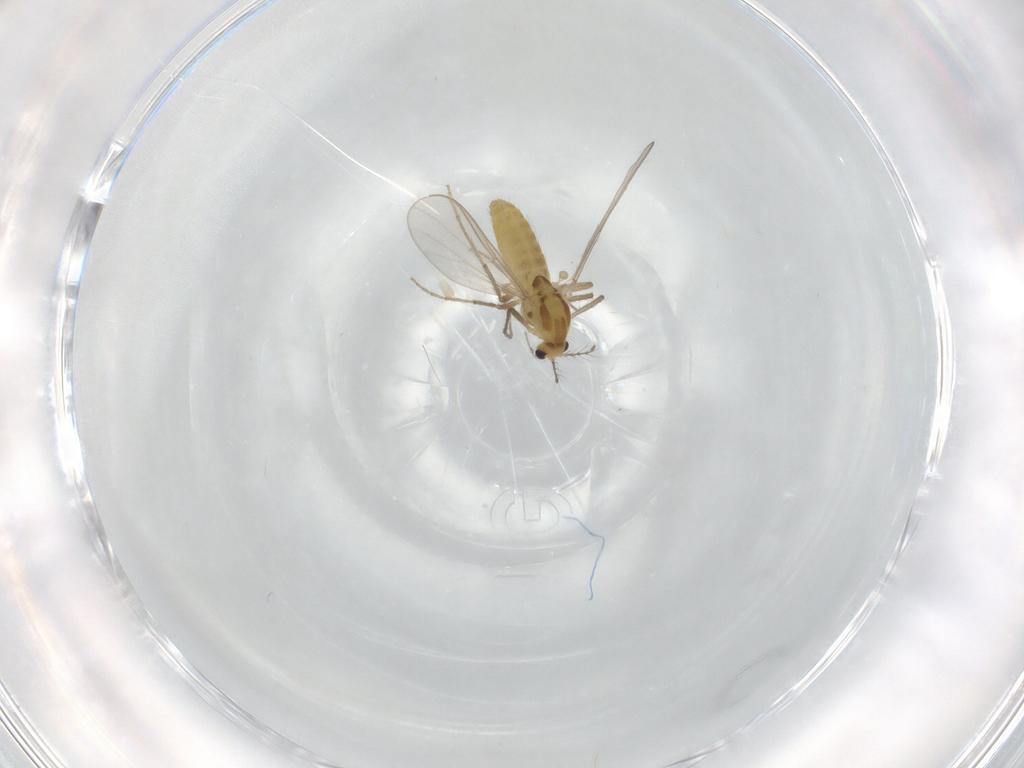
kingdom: Animalia
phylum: Arthropoda
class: Insecta
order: Diptera
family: Chironomidae
